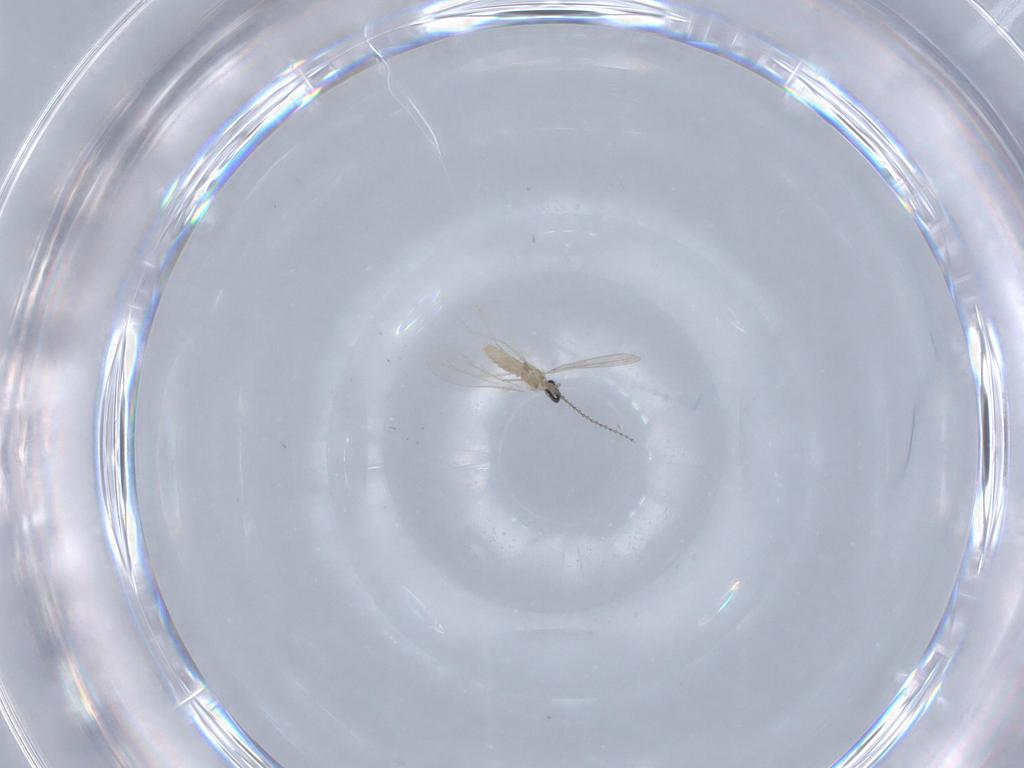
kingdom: Animalia
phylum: Arthropoda
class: Insecta
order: Diptera
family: Cecidomyiidae
